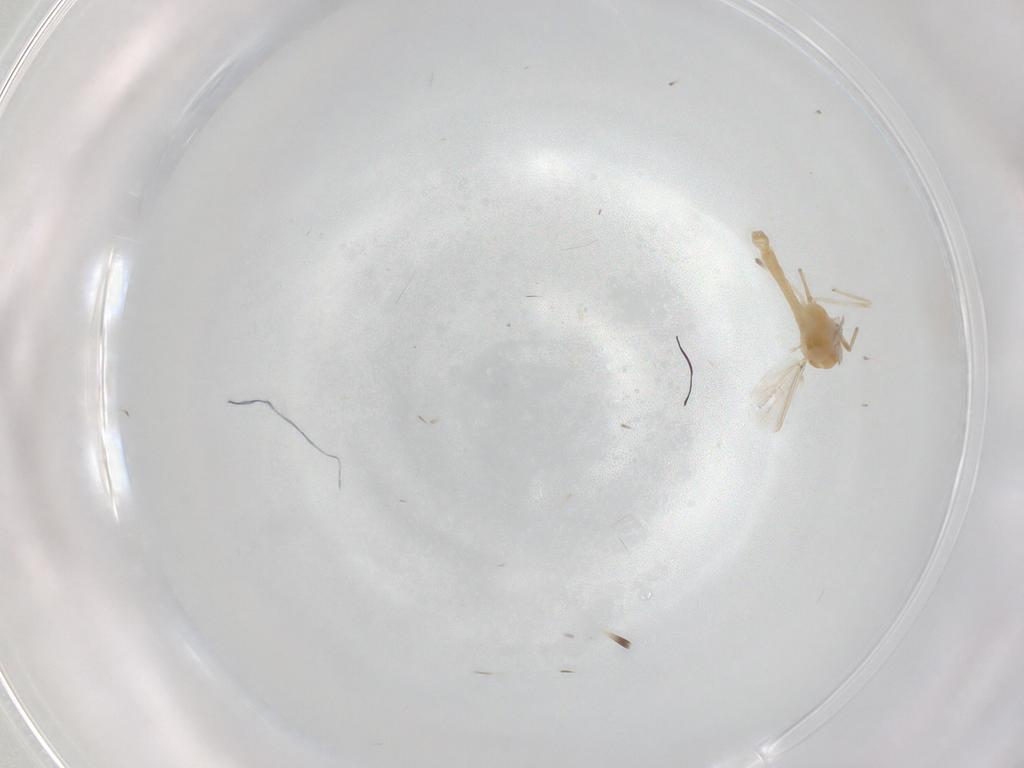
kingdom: Animalia
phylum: Arthropoda
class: Insecta
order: Diptera
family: Chironomidae
